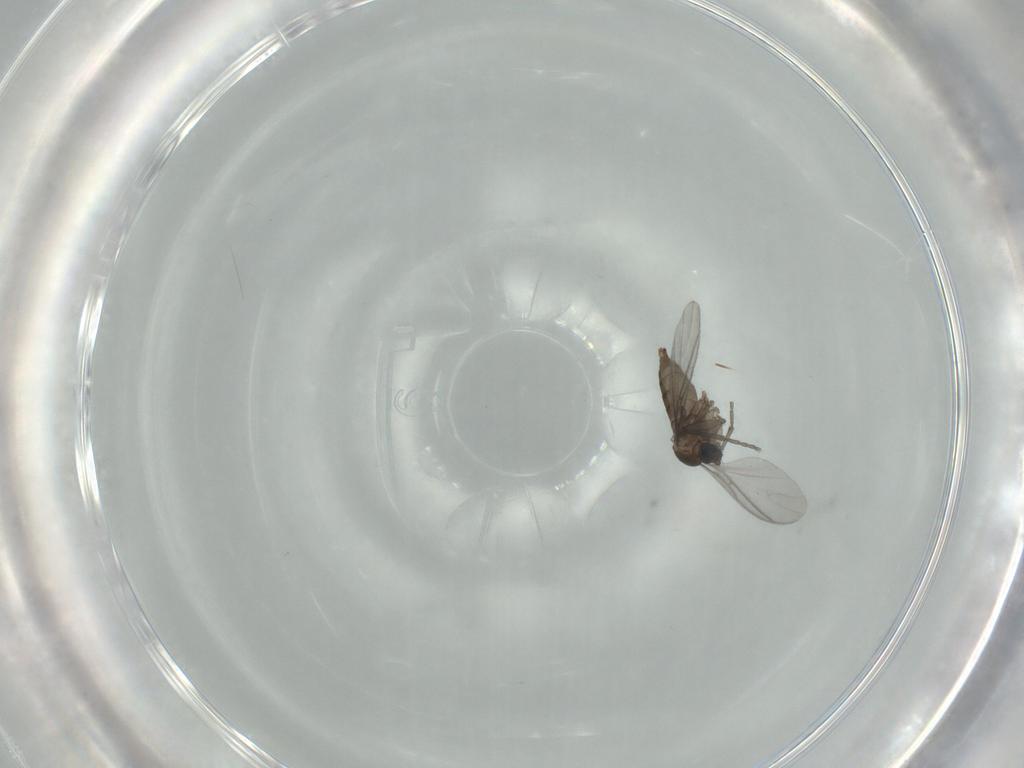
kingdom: Animalia
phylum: Arthropoda
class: Insecta
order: Diptera
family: Sciaridae
